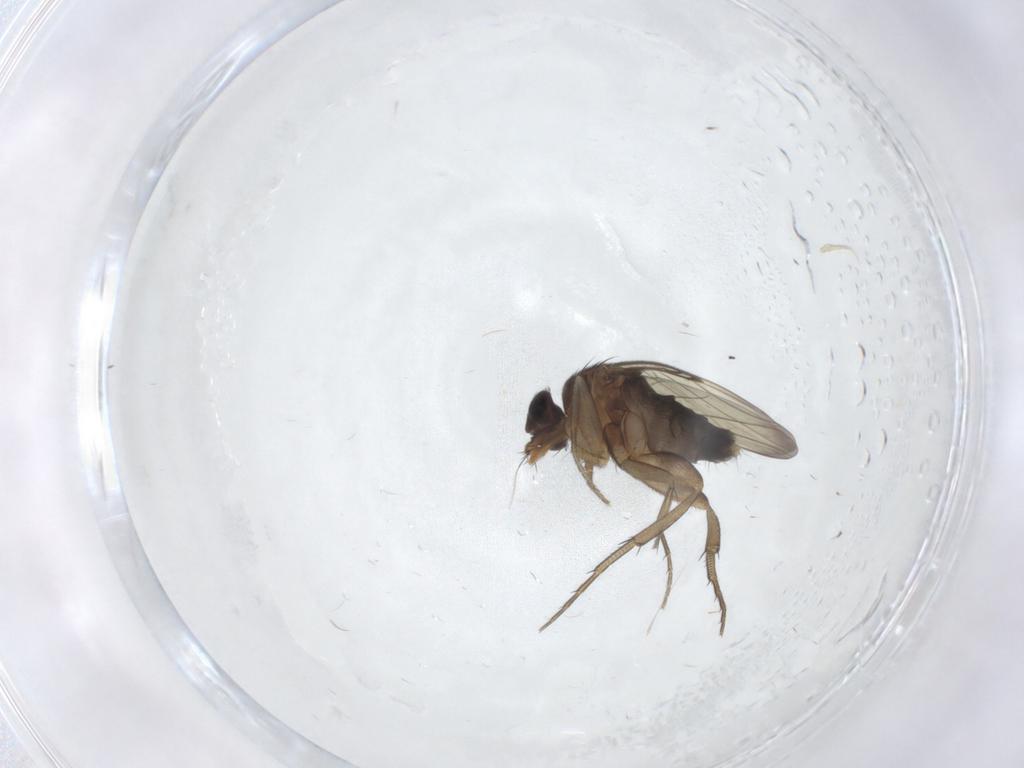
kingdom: Animalia
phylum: Arthropoda
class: Insecta
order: Diptera
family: Phoridae
